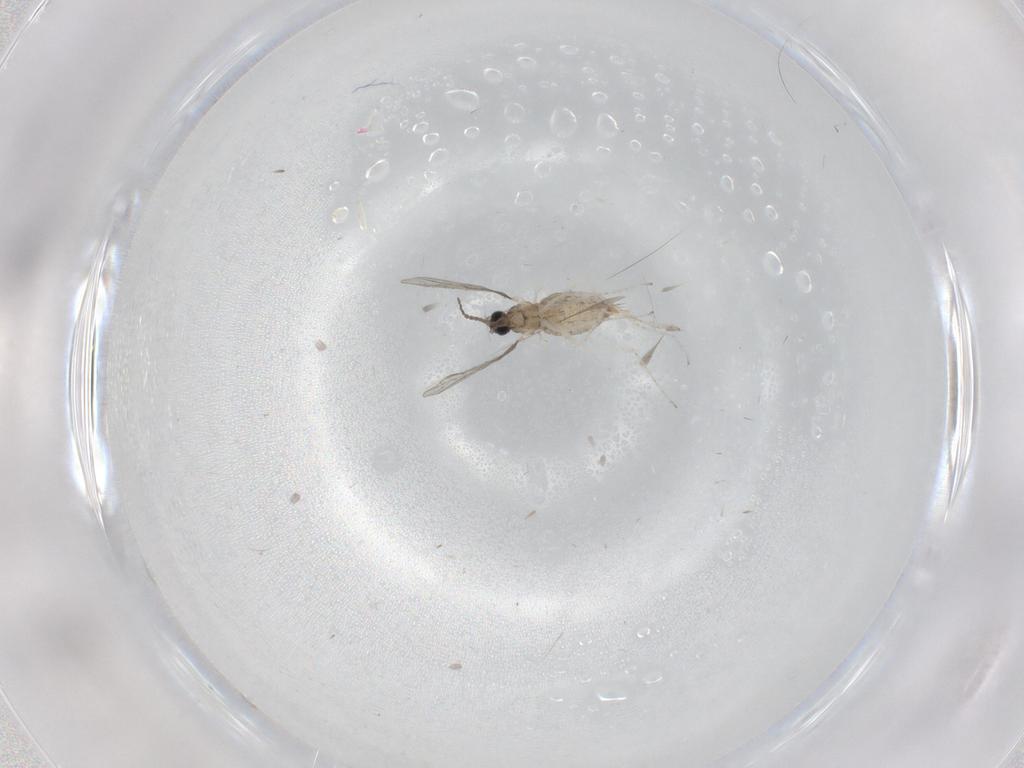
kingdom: Animalia
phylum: Arthropoda
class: Insecta
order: Diptera
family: Cecidomyiidae
